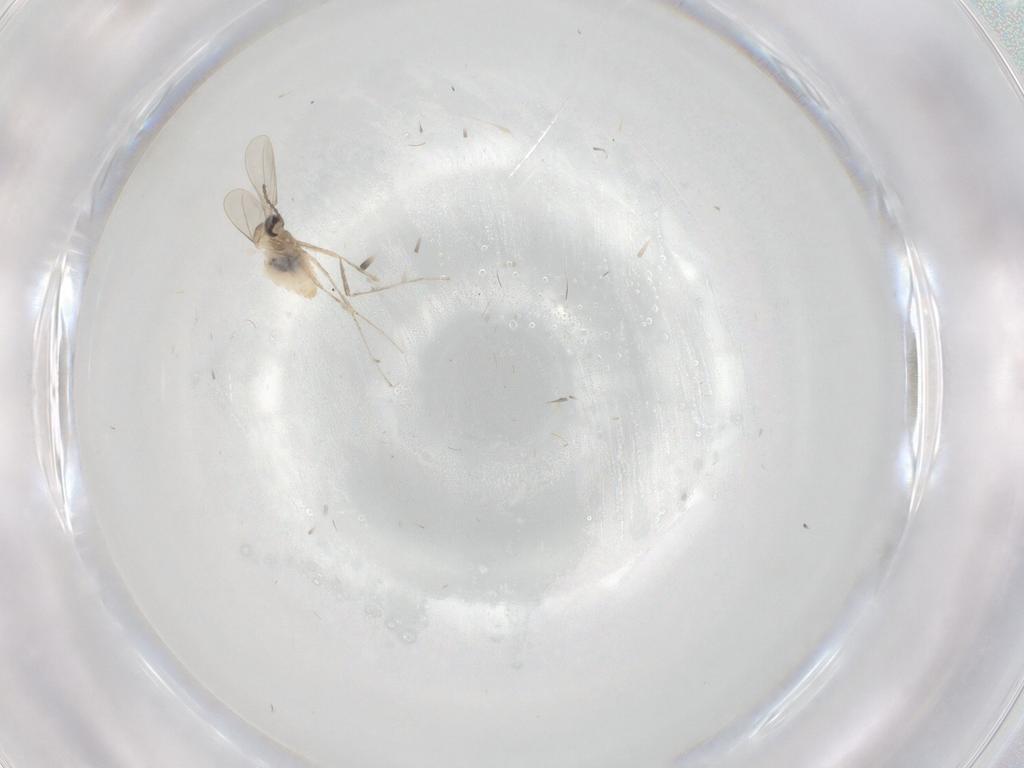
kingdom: Animalia
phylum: Arthropoda
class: Insecta
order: Diptera
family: Cecidomyiidae
